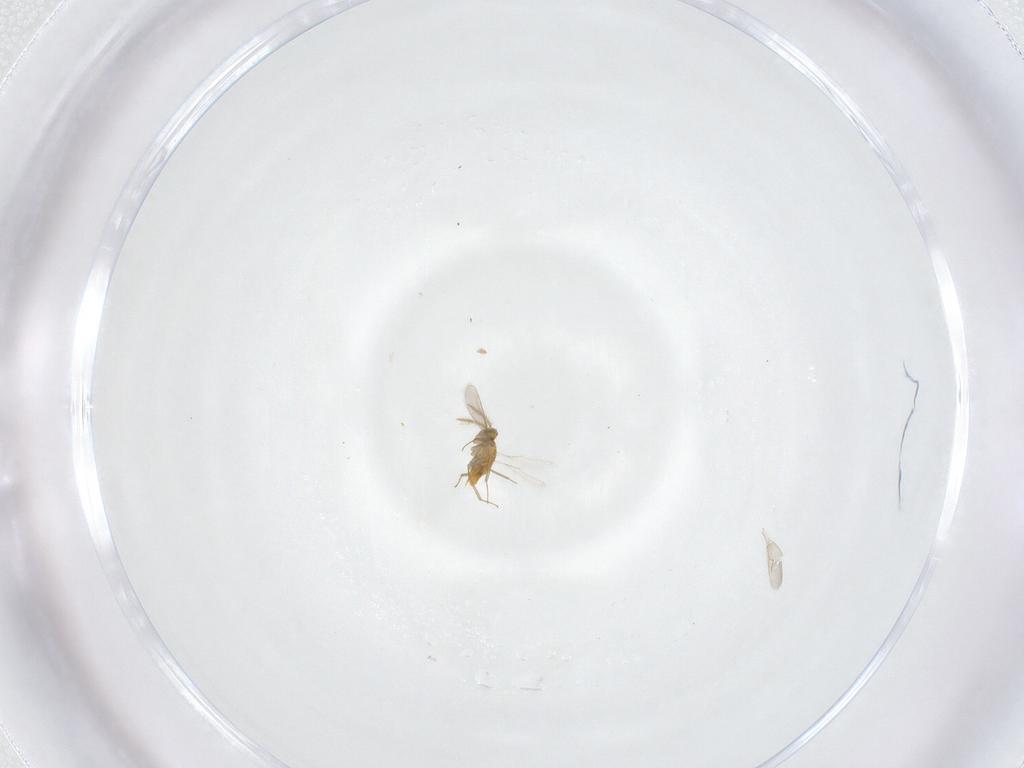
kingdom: Animalia
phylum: Arthropoda
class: Insecta
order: Hymenoptera
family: Aphelinidae
